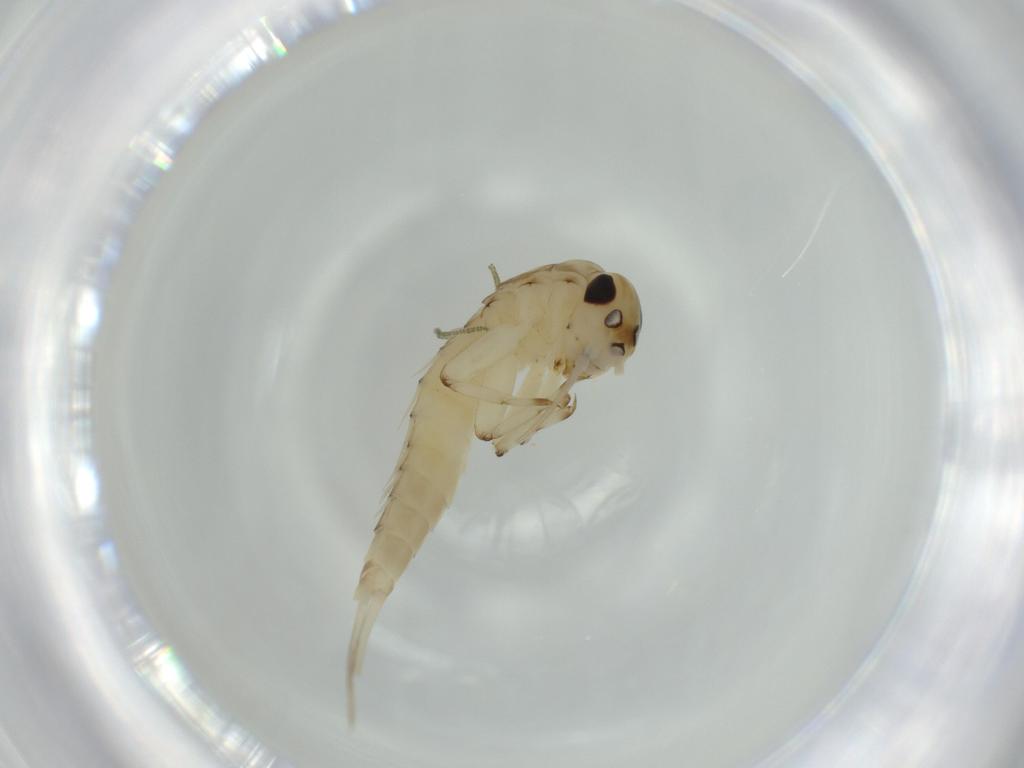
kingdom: Animalia
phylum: Arthropoda
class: Insecta
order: Ephemeroptera
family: Baetidae
